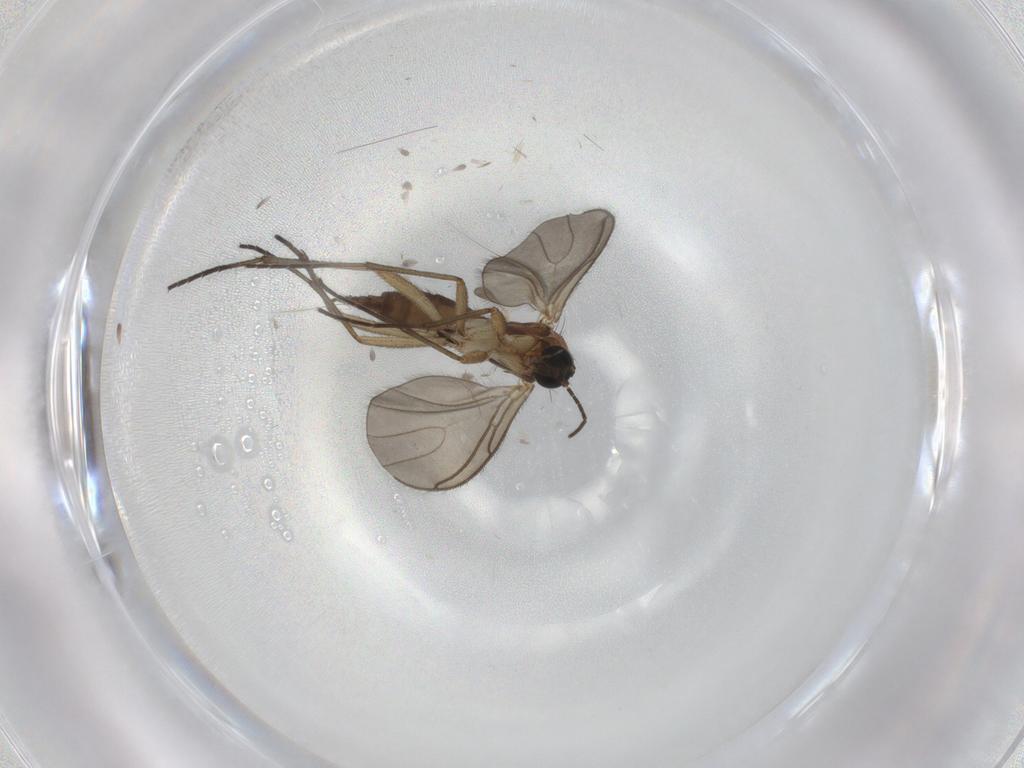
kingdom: Animalia
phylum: Arthropoda
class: Insecta
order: Diptera
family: Sciaridae
